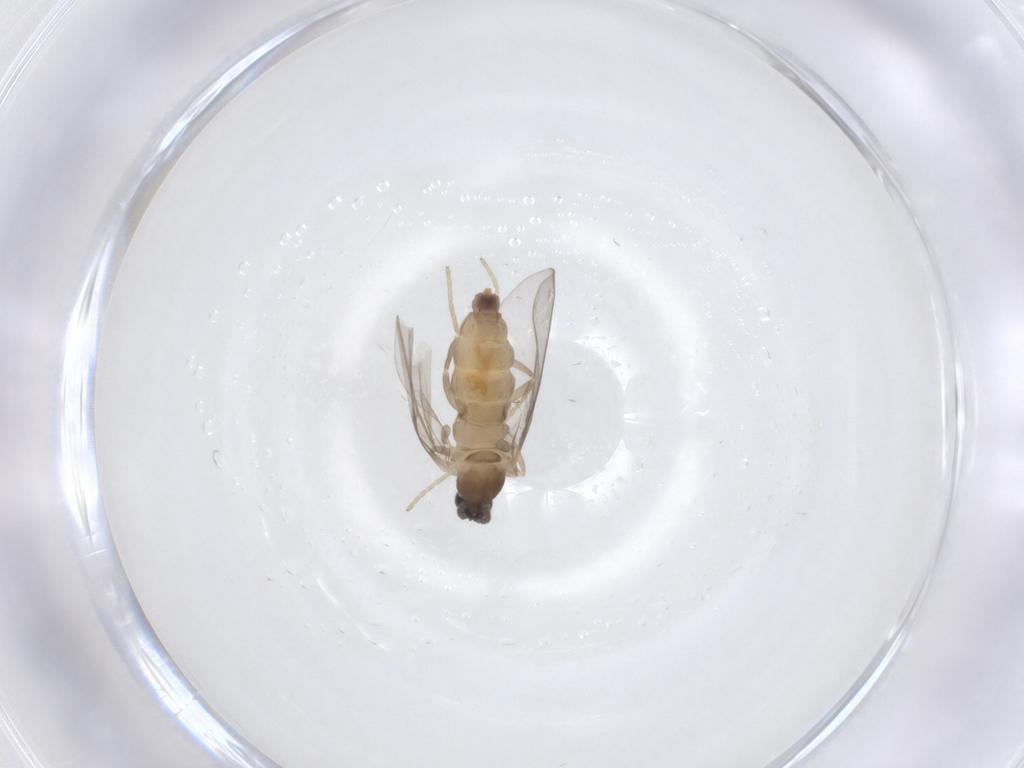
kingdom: Animalia
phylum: Arthropoda
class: Insecta
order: Diptera
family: Cecidomyiidae
